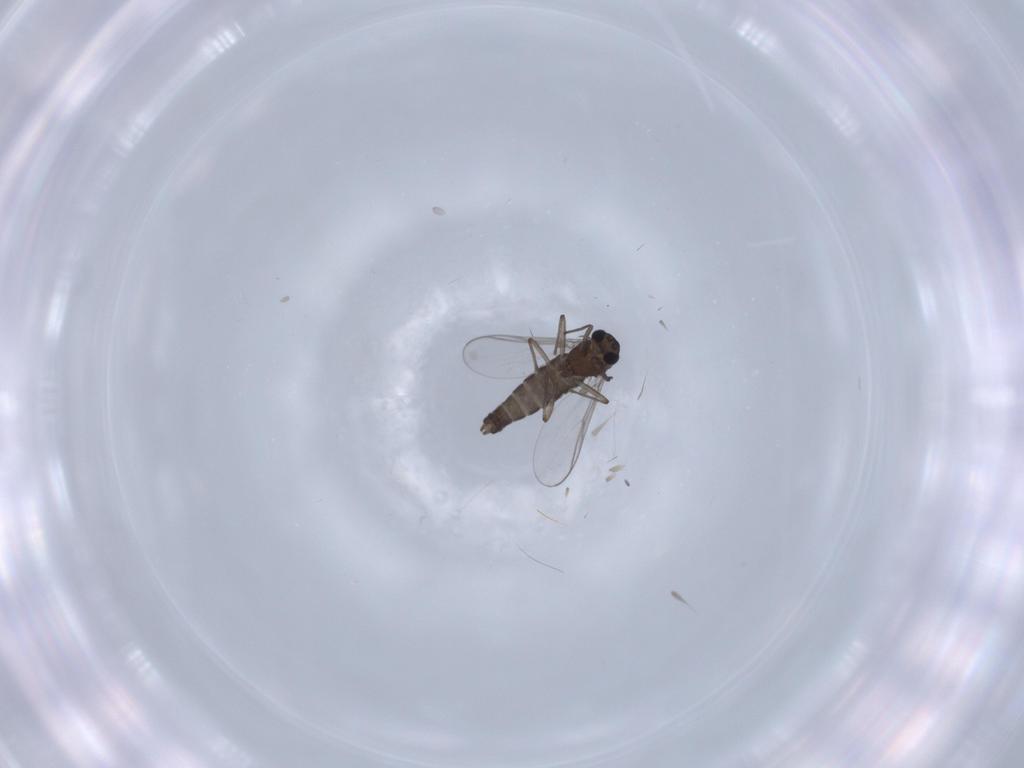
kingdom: Animalia
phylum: Arthropoda
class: Insecta
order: Diptera
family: Chironomidae
